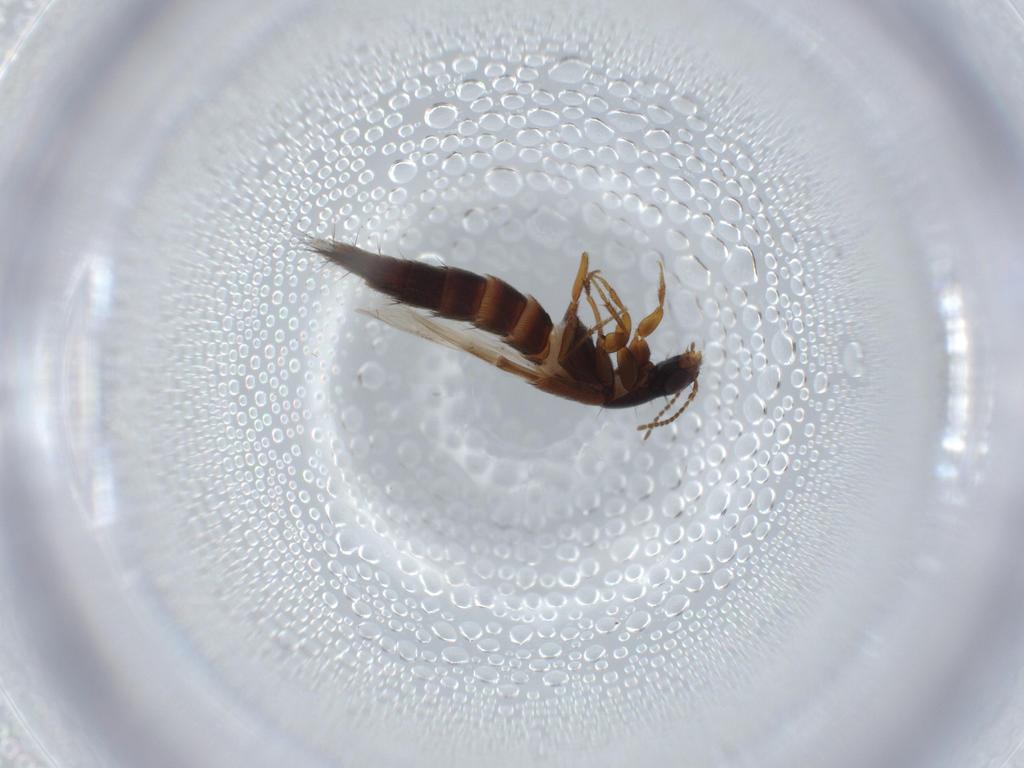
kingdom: Animalia
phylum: Arthropoda
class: Insecta
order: Coleoptera
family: Staphylinidae
